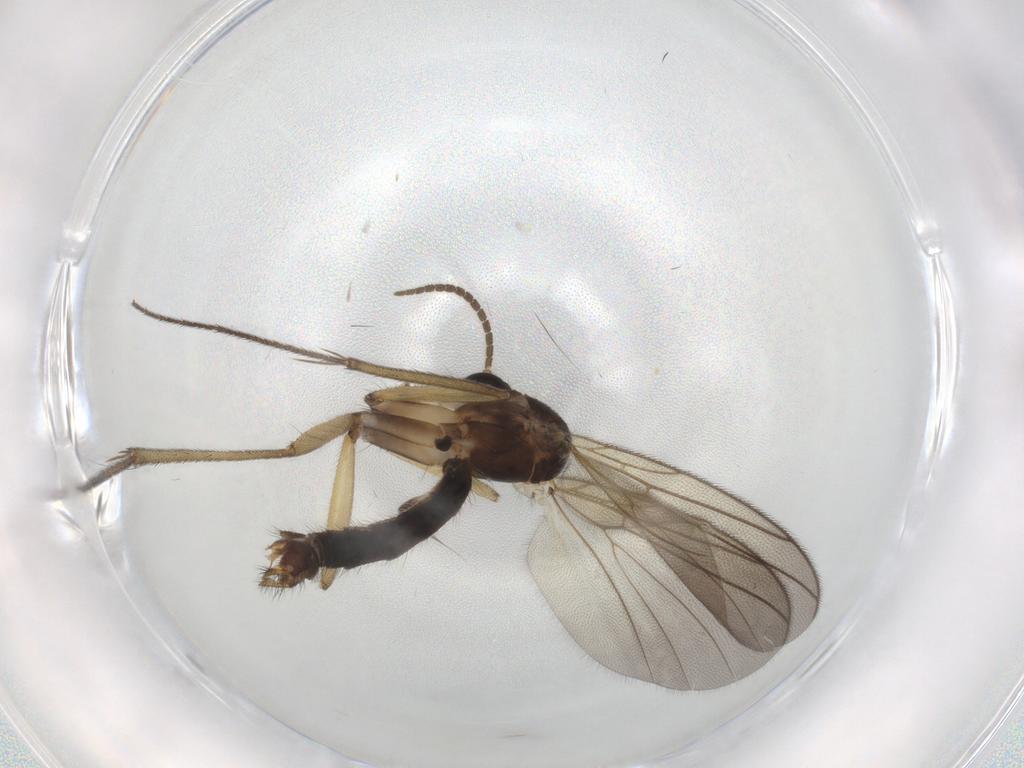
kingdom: Animalia
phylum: Arthropoda
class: Insecta
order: Diptera
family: Mycetophilidae
